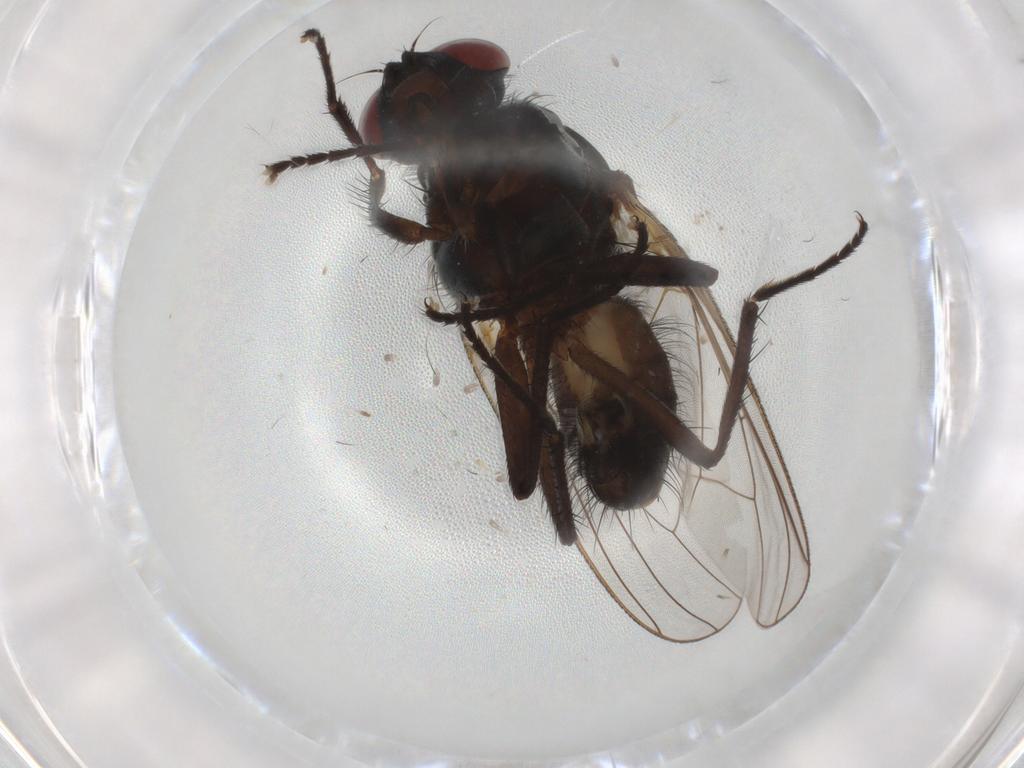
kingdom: Animalia
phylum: Arthropoda
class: Insecta
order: Diptera
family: Anthomyiidae
